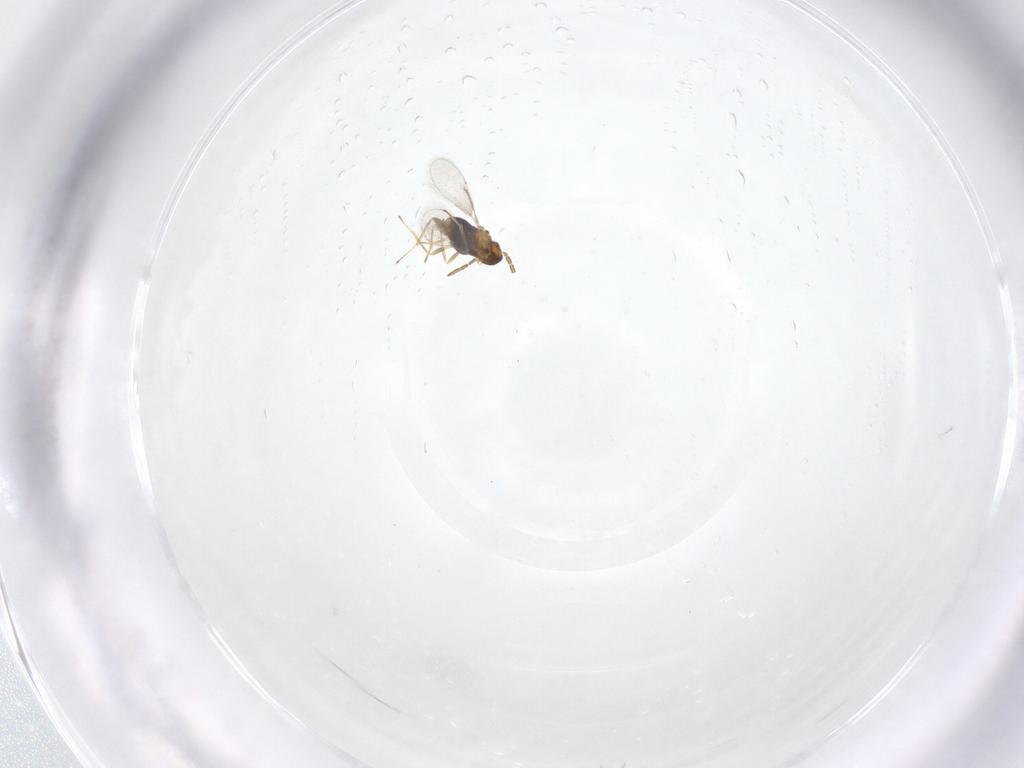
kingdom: Animalia
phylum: Arthropoda
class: Insecta
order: Hymenoptera
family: Aphelinidae
